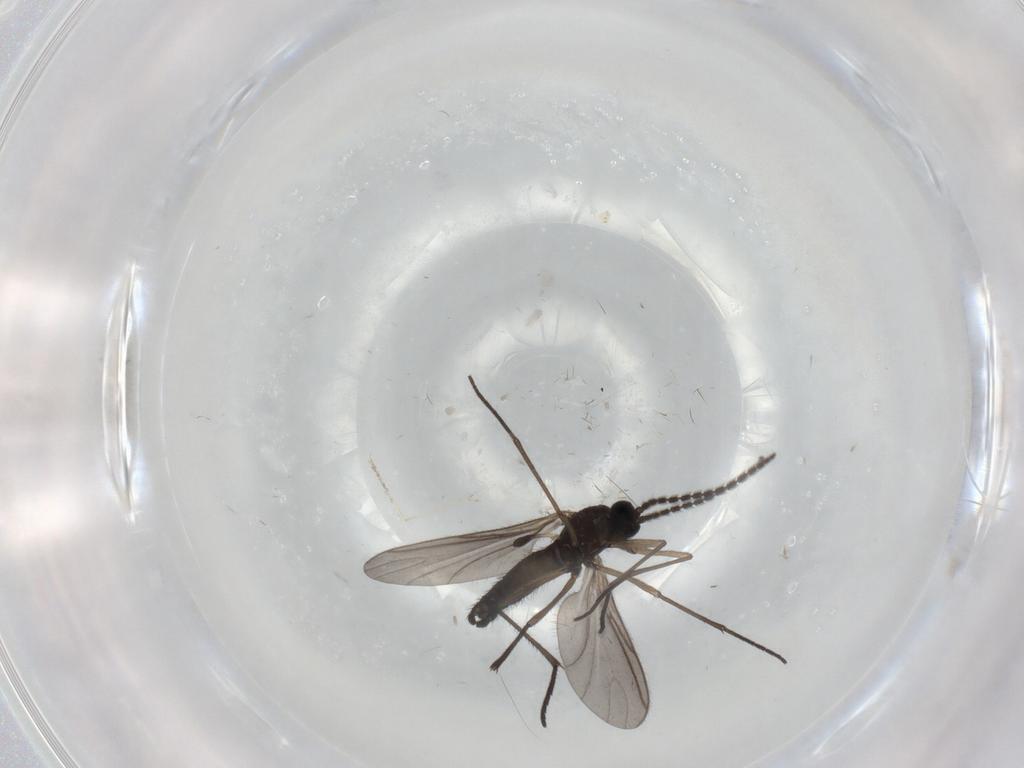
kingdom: Animalia
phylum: Arthropoda
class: Insecta
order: Diptera
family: Sciaridae
